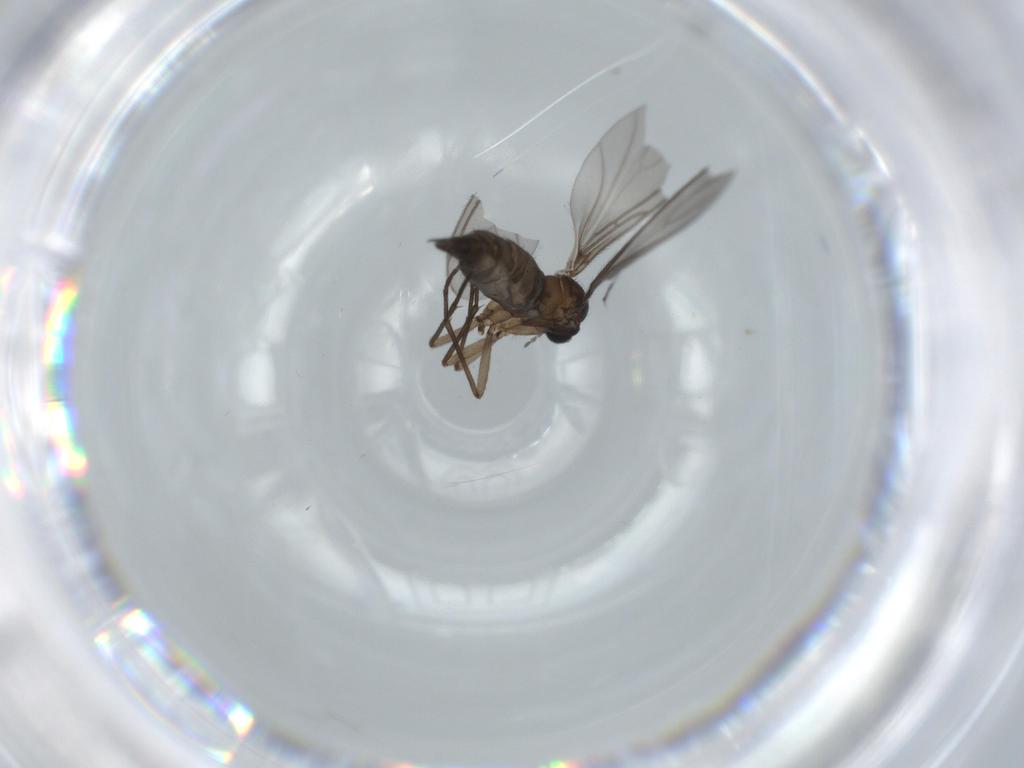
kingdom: Animalia
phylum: Arthropoda
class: Insecta
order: Diptera
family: Sciaridae
